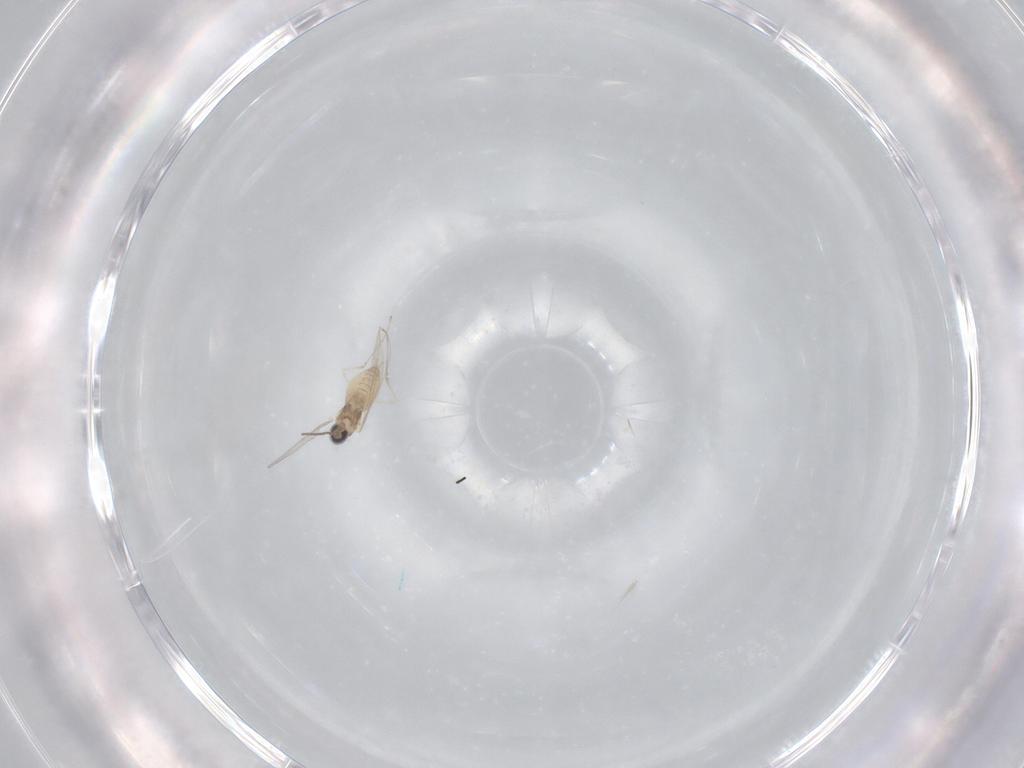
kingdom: Animalia
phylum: Arthropoda
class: Insecta
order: Diptera
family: Cecidomyiidae
